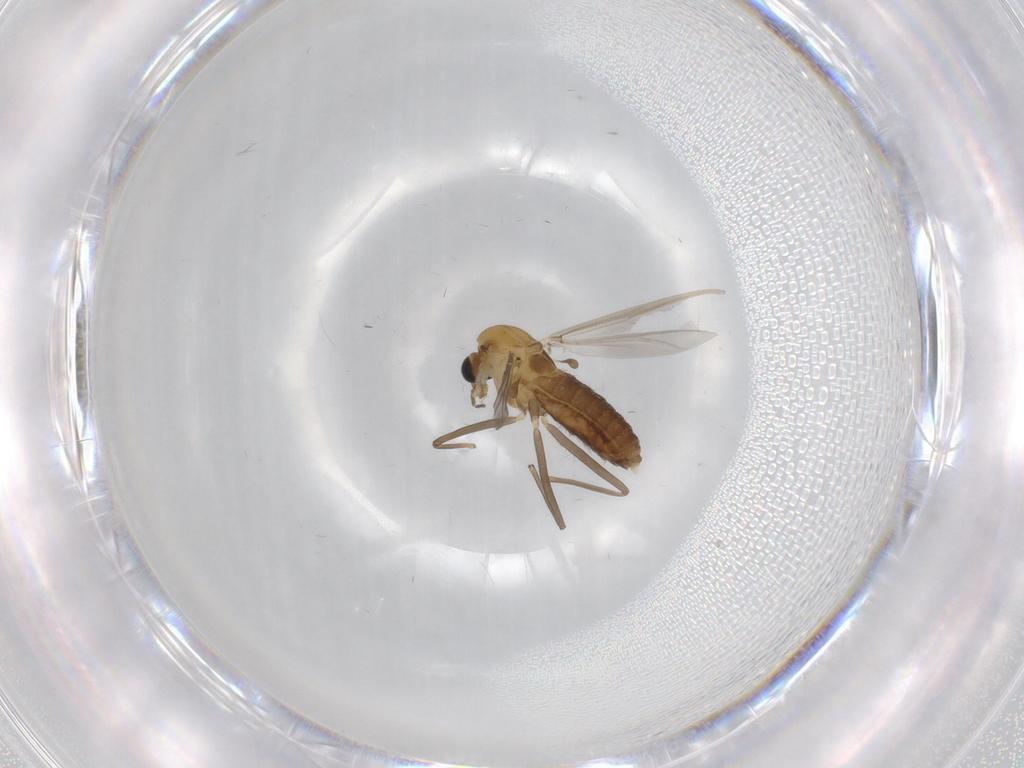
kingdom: Animalia
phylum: Arthropoda
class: Insecta
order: Diptera
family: Chironomidae
